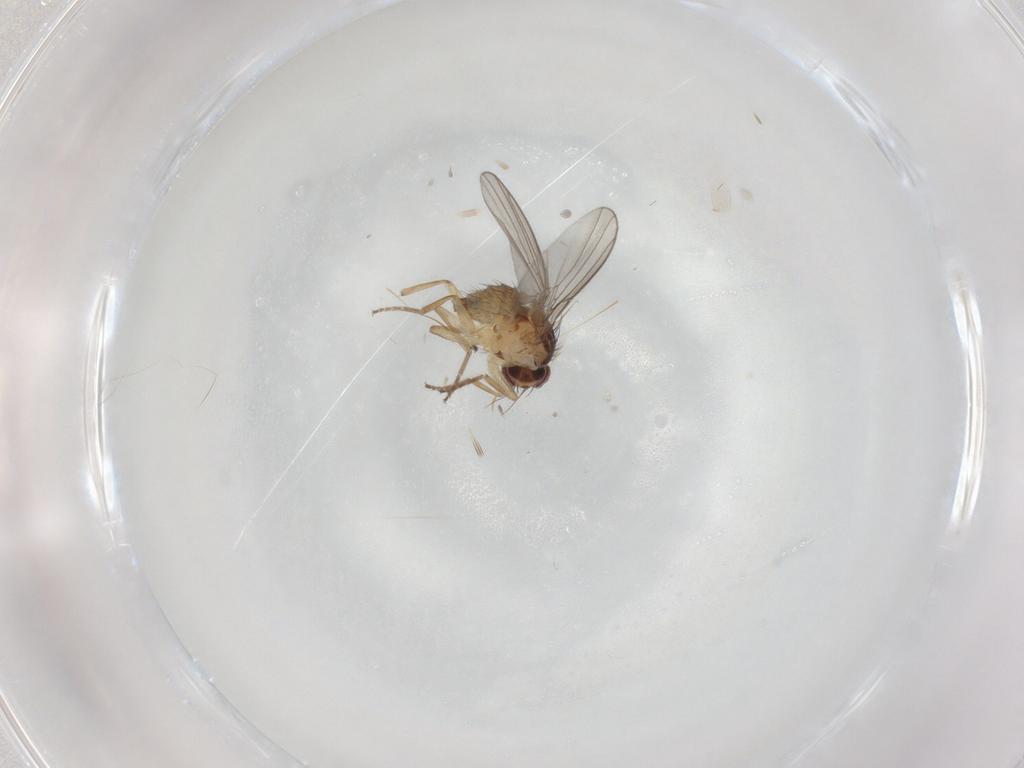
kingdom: Animalia
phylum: Arthropoda
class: Insecta
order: Diptera
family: Agromyzidae
